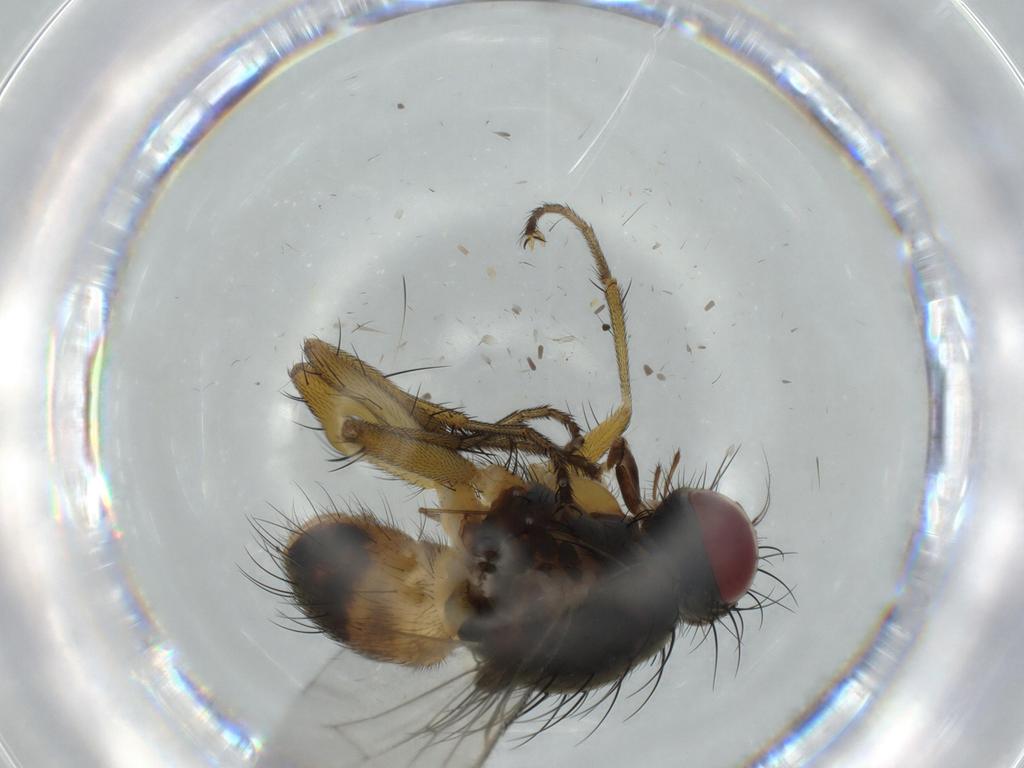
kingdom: Animalia
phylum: Arthropoda
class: Insecta
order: Diptera
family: Muscidae
